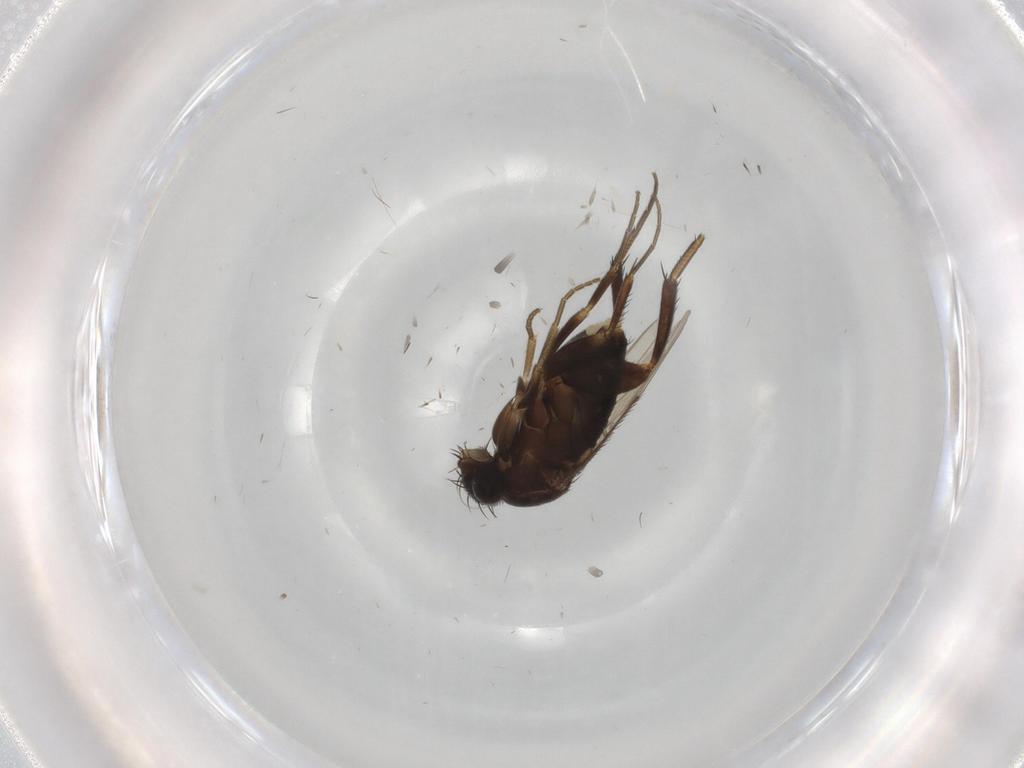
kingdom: Animalia
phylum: Arthropoda
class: Insecta
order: Diptera
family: Phoridae
